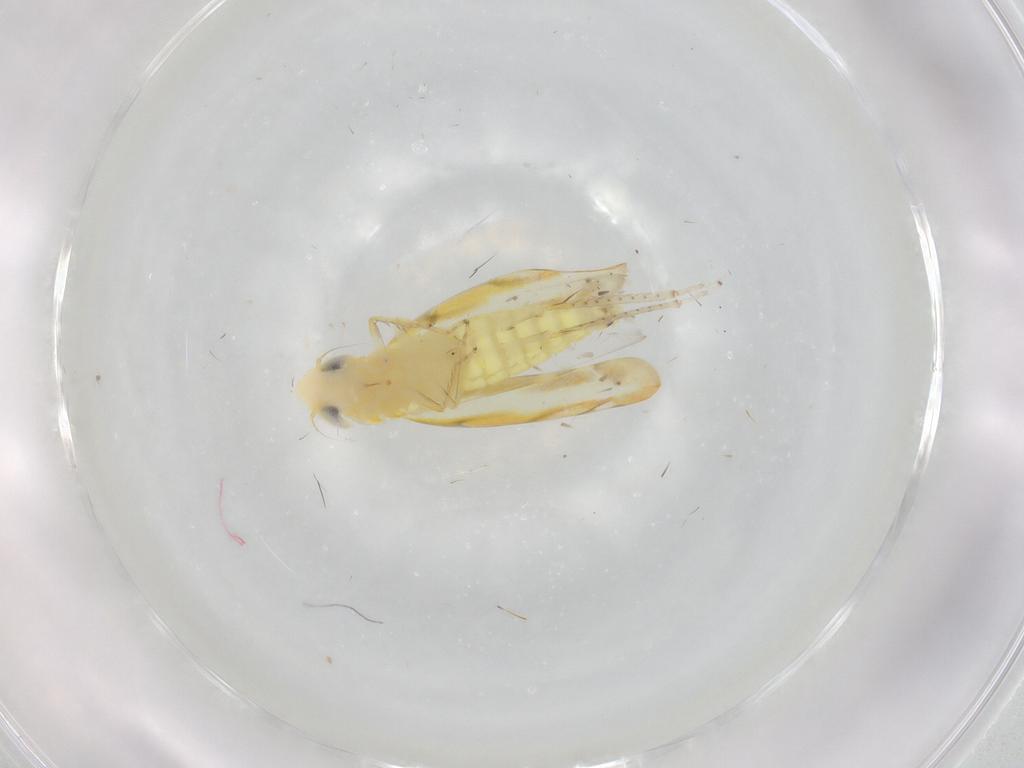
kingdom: Animalia
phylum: Arthropoda
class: Insecta
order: Hemiptera
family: Cicadellidae
